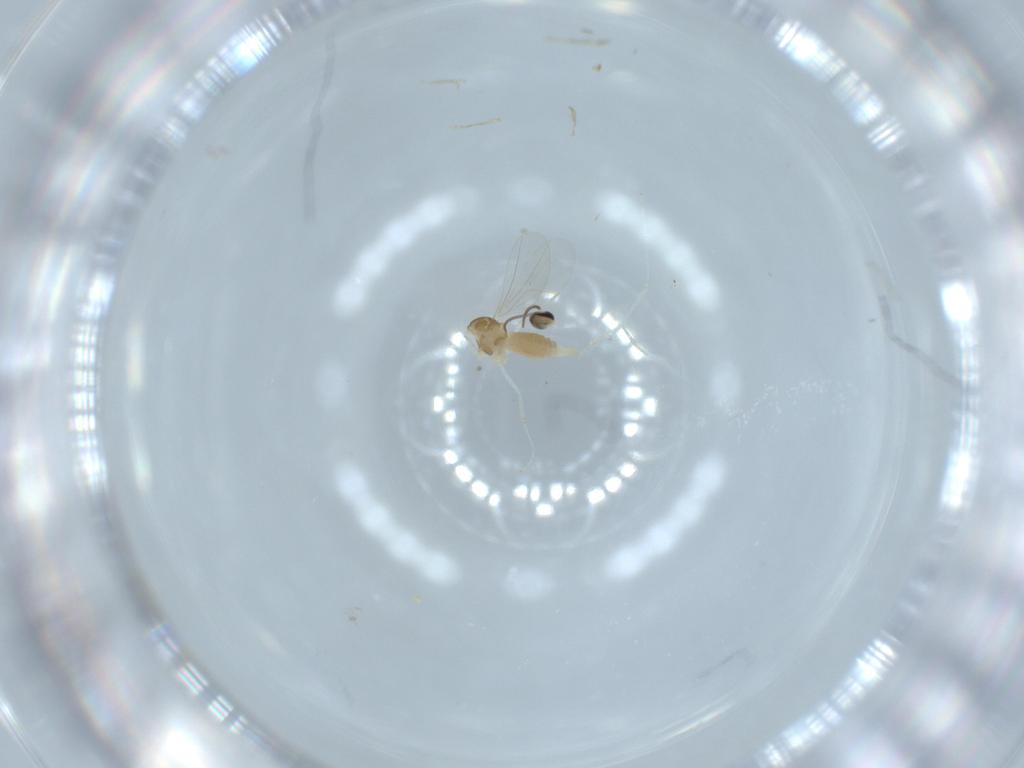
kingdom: Animalia
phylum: Arthropoda
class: Insecta
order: Diptera
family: Cecidomyiidae
